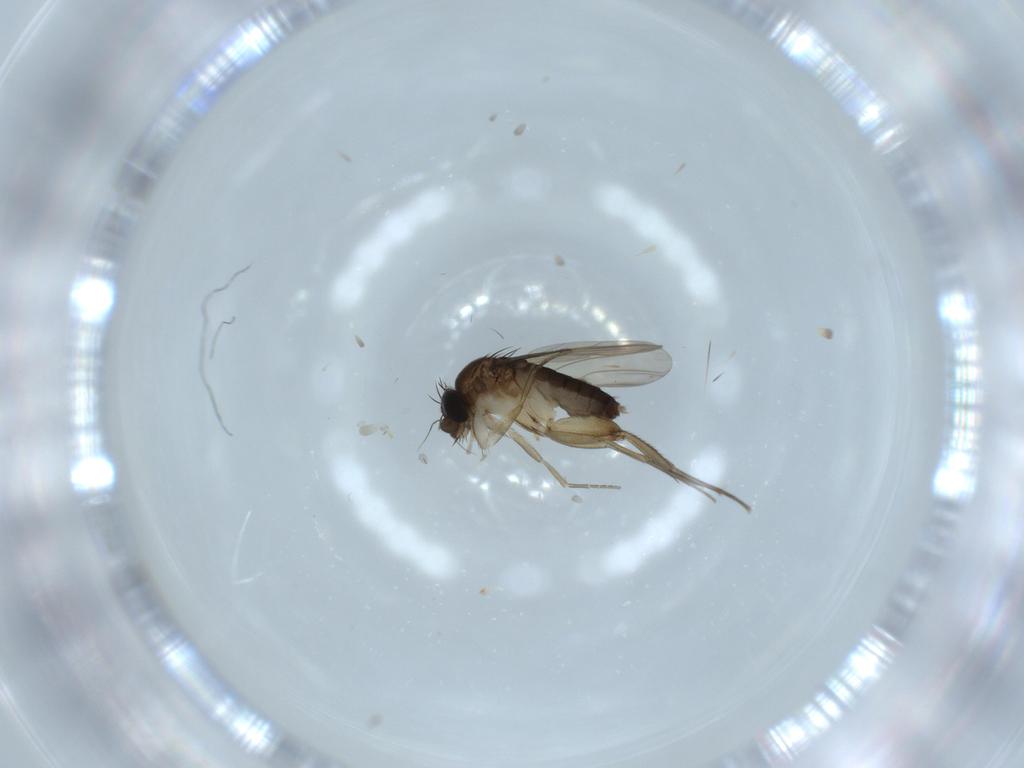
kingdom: Animalia
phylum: Arthropoda
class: Insecta
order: Diptera
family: Phoridae
